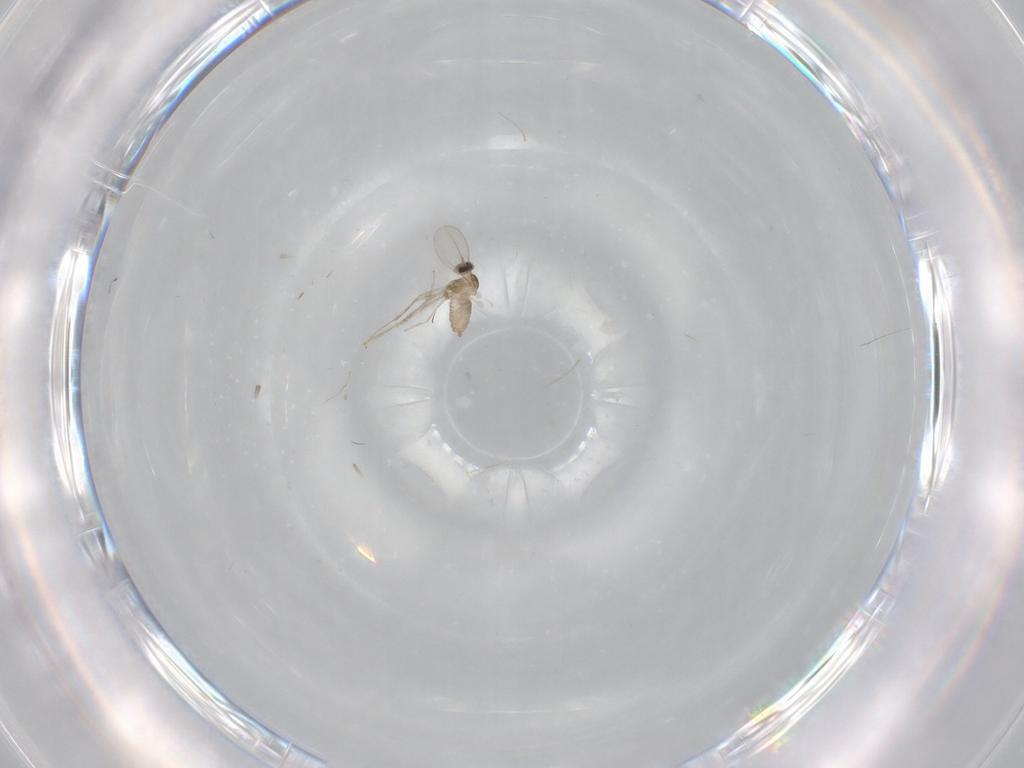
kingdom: Animalia
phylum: Arthropoda
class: Insecta
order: Diptera
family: Cecidomyiidae
